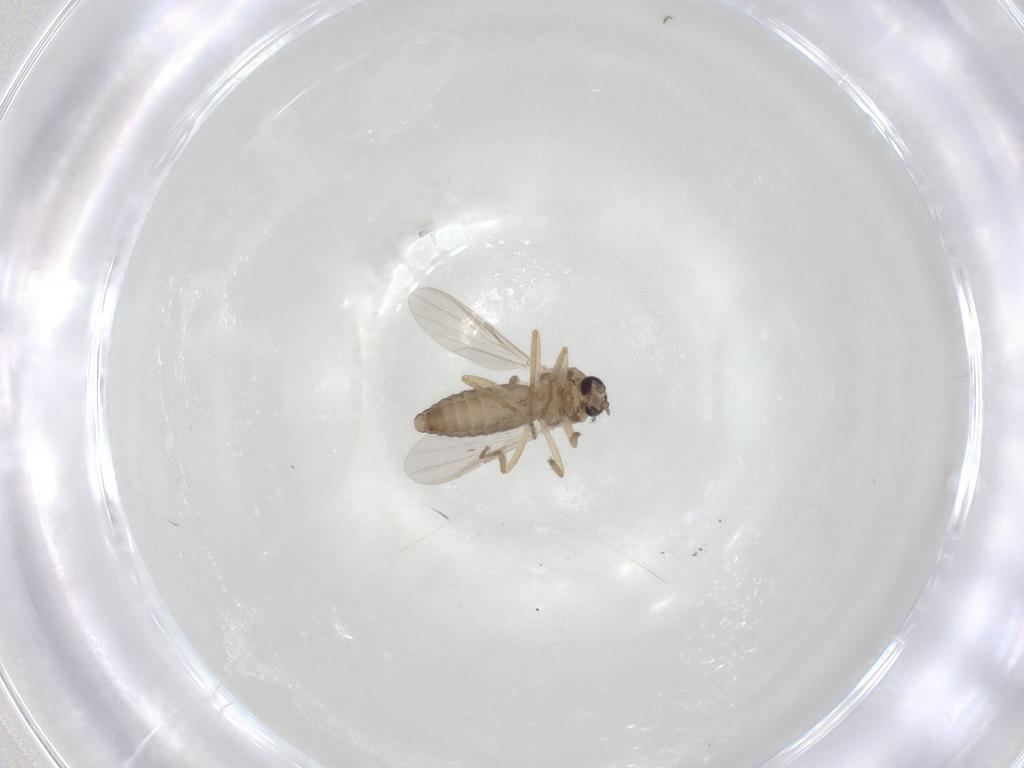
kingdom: Animalia
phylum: Arthropoda
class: Insecta
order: Diptera
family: Ceratopogonidae
